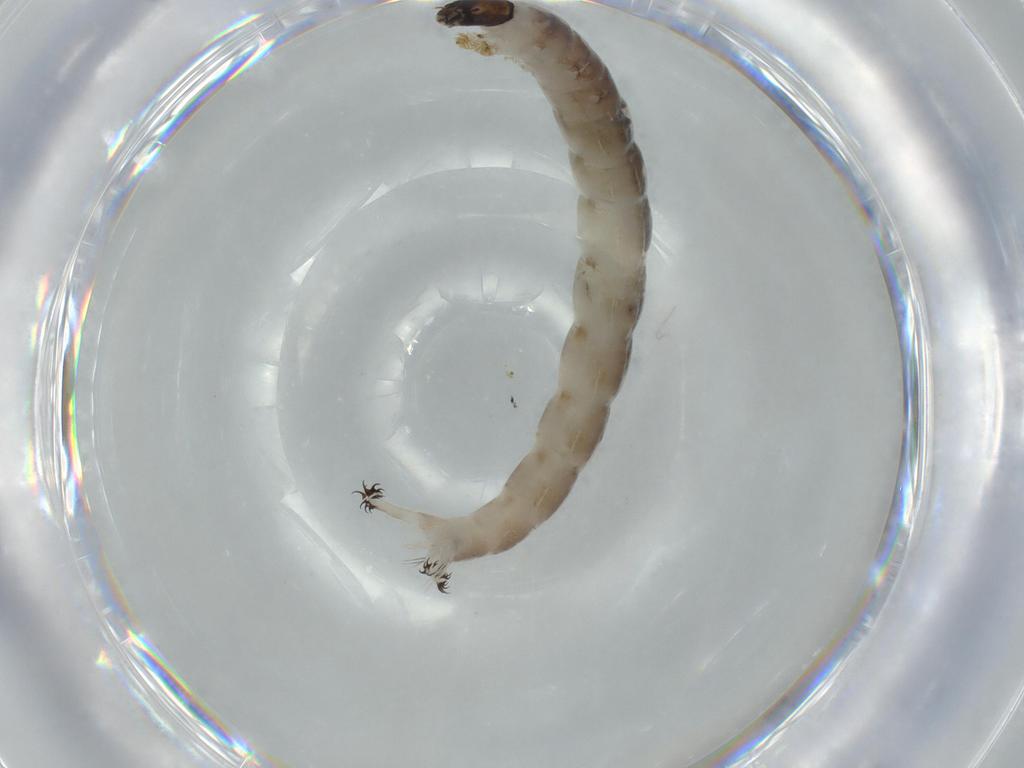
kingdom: Animalia
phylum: Arthropoda
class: Insecta
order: Diptera
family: Chironomidae
